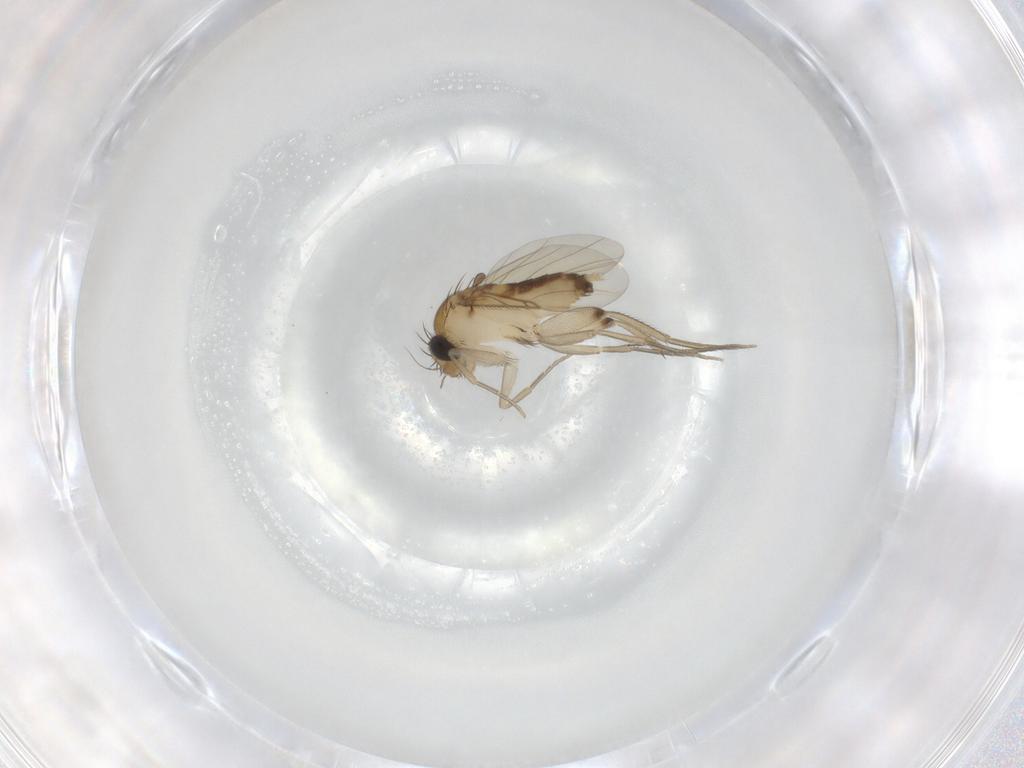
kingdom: Animalia
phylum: Arthropoda
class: Insecta
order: Diptera
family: Phoridae
